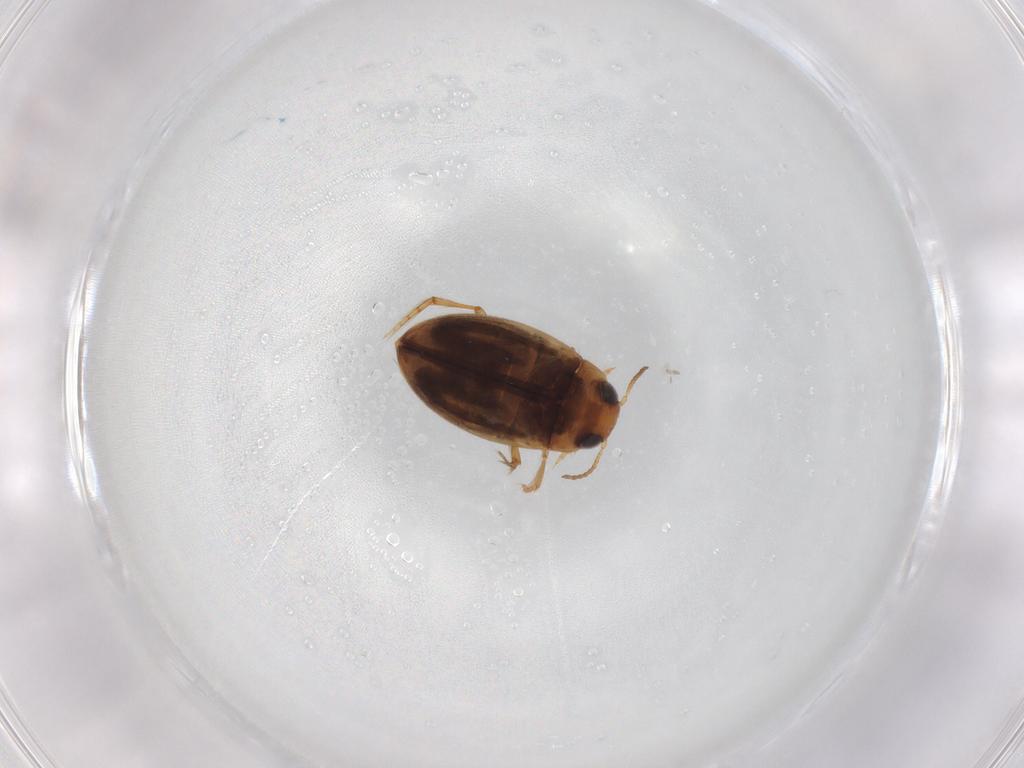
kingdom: Animalia
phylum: Arthropoda
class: Insecta
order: Coleoptera
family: Dytiscidae
